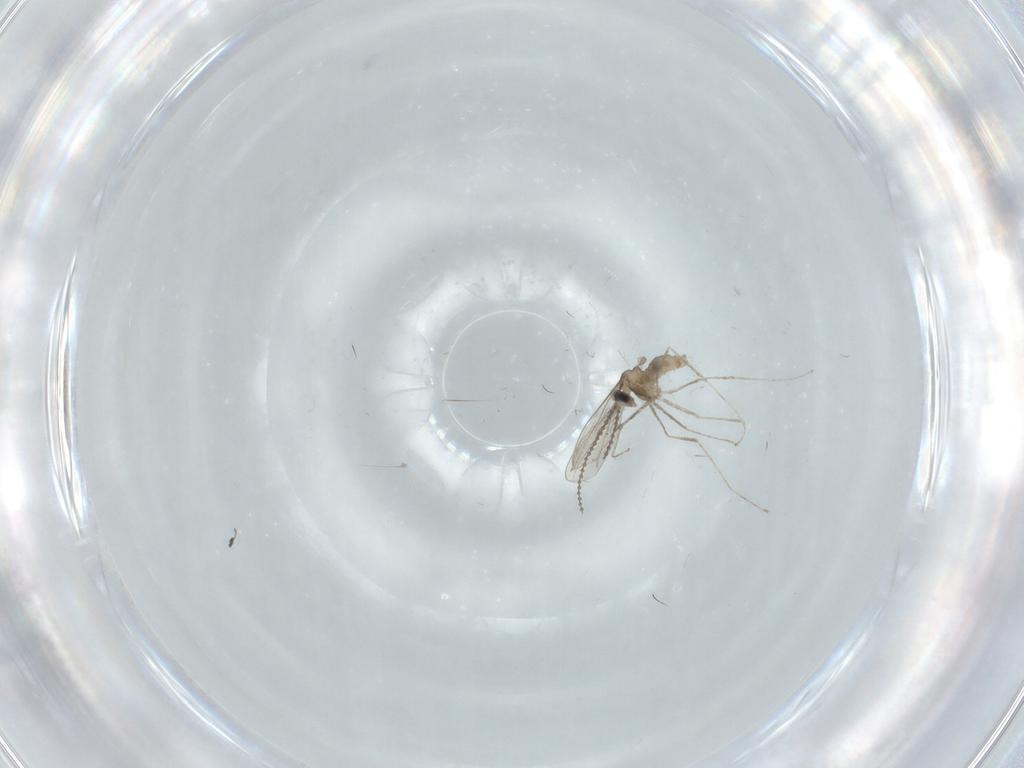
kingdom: Animalia
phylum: Arthropoda
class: Insecta
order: Diptera
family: Cecidomyiidae
